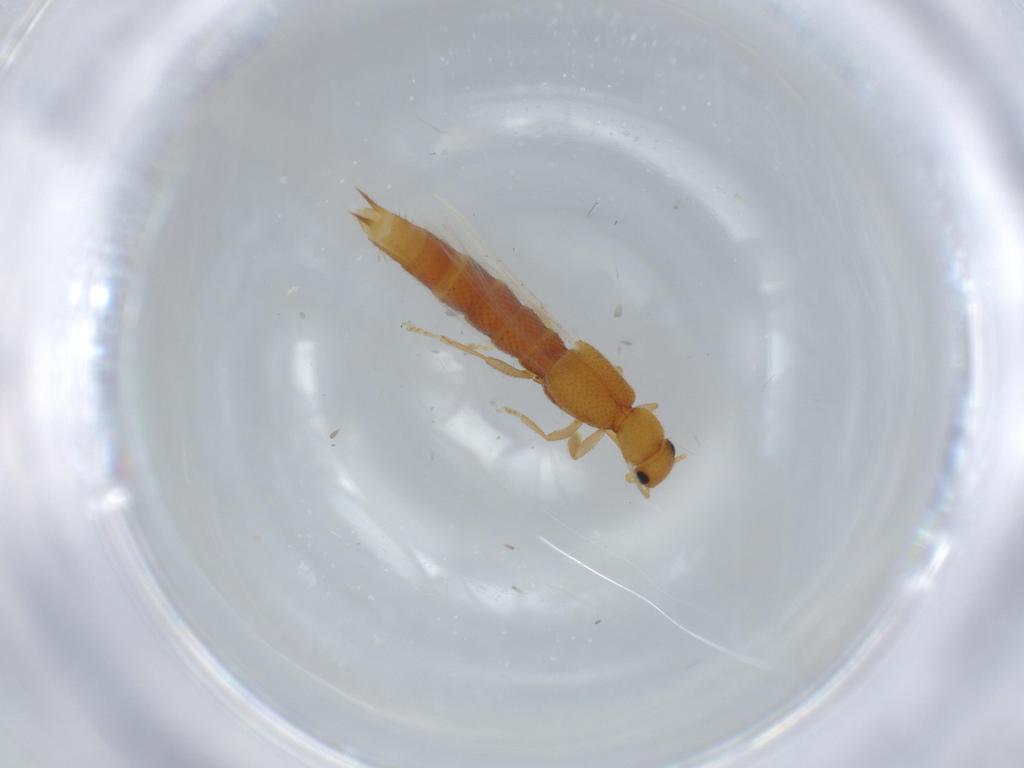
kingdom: Animalia
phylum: Arthropoda
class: Insecta
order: Coleoptera
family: Staphylinidae
